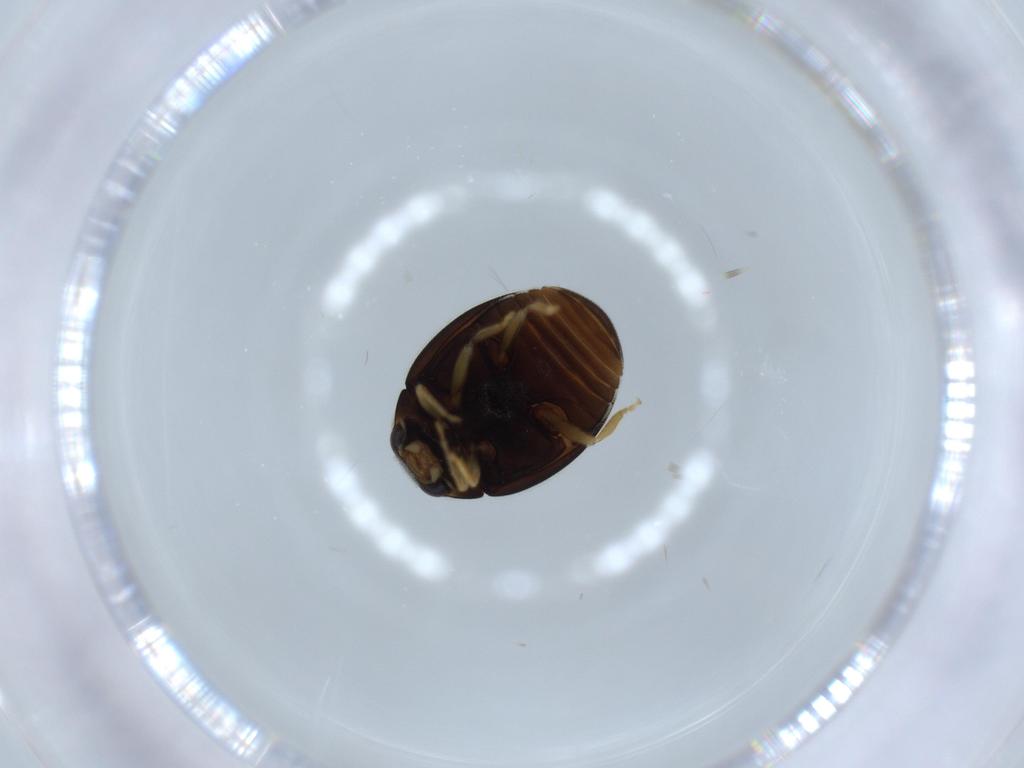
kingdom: Animalia
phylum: Arthropoda
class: Insecta
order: Coleoptera
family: Coccinellidae
